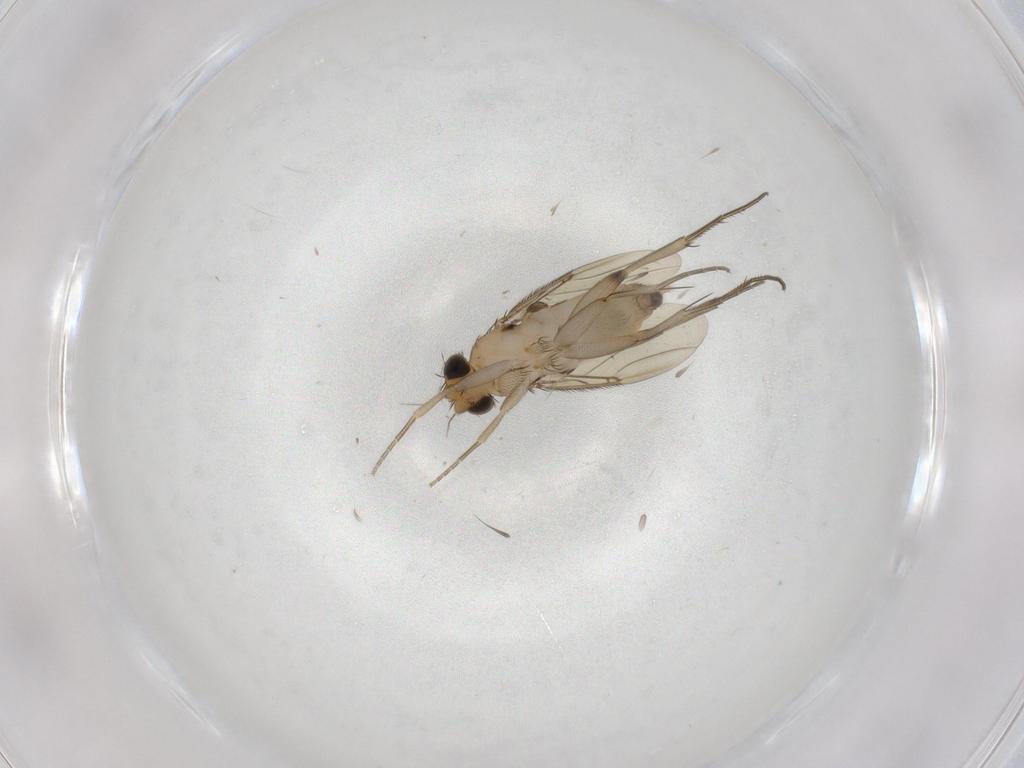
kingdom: Animalia
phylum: Arthropoda
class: Insecta
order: Diptera
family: Phoridae
